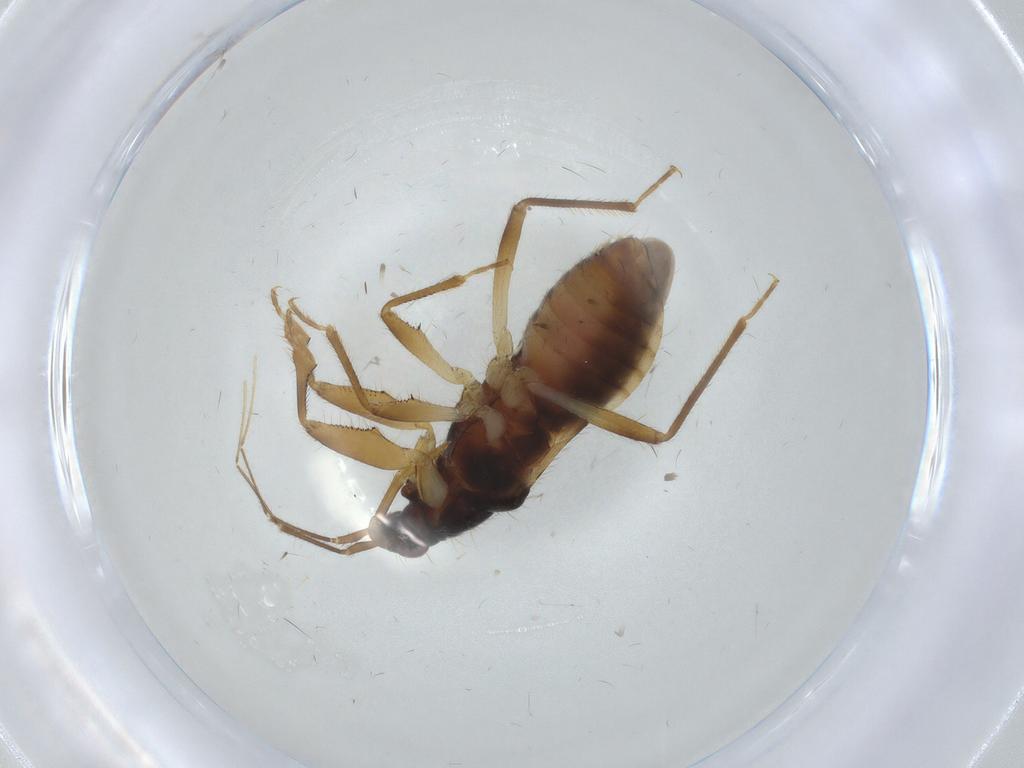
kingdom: Animalia
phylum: Arthropoda
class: Insecta
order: Hemiptera
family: Nabidae
